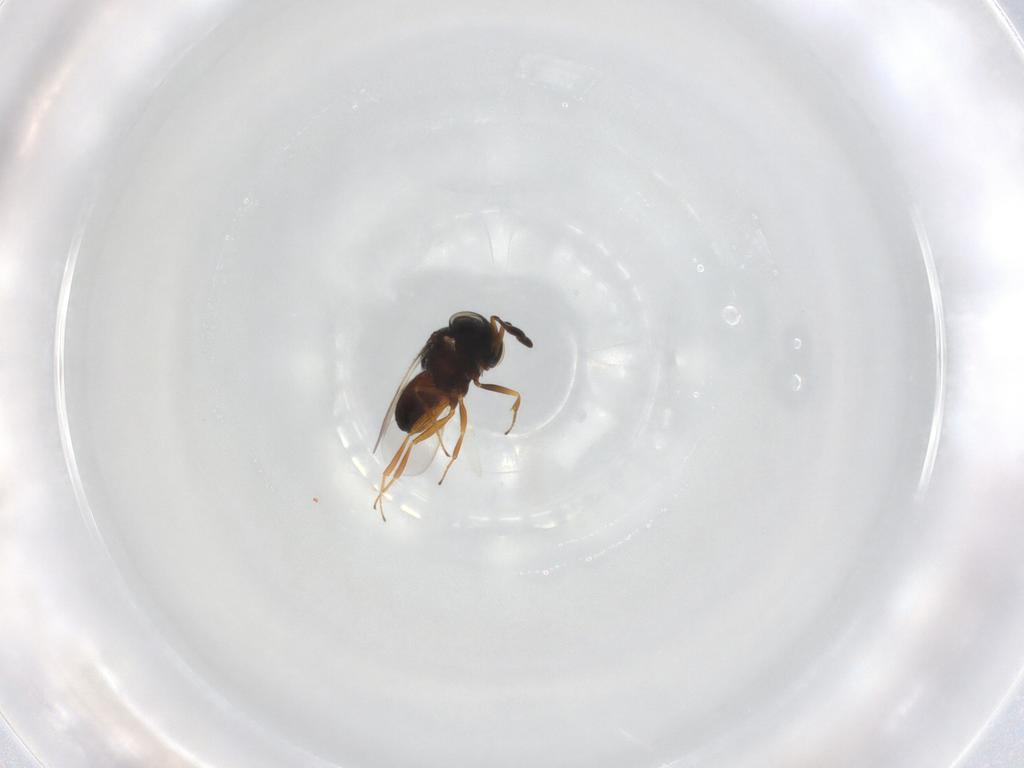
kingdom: Animalia
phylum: Arthropoda
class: Insecta
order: Hymenoptera
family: Scelionidae
